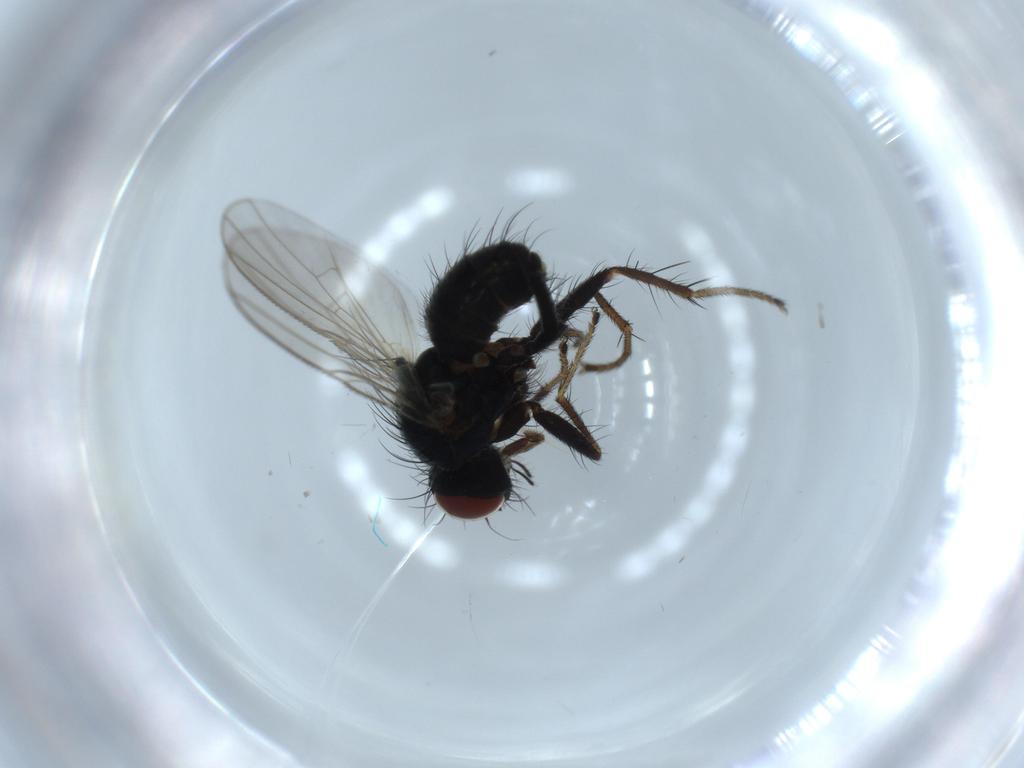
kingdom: Animalia
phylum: Arthropoda
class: Insecta
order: Diptera
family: Muscidae
